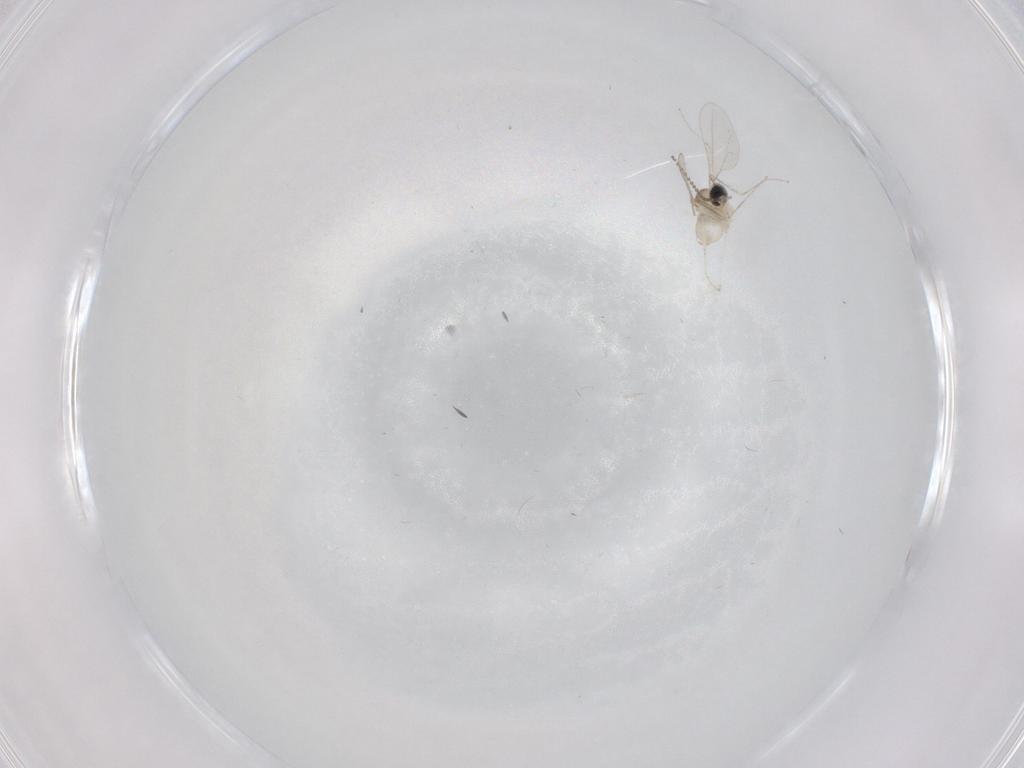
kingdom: Animalia
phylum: Arthropoda
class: Insecta
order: Diptera
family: Cecidomyiidae
